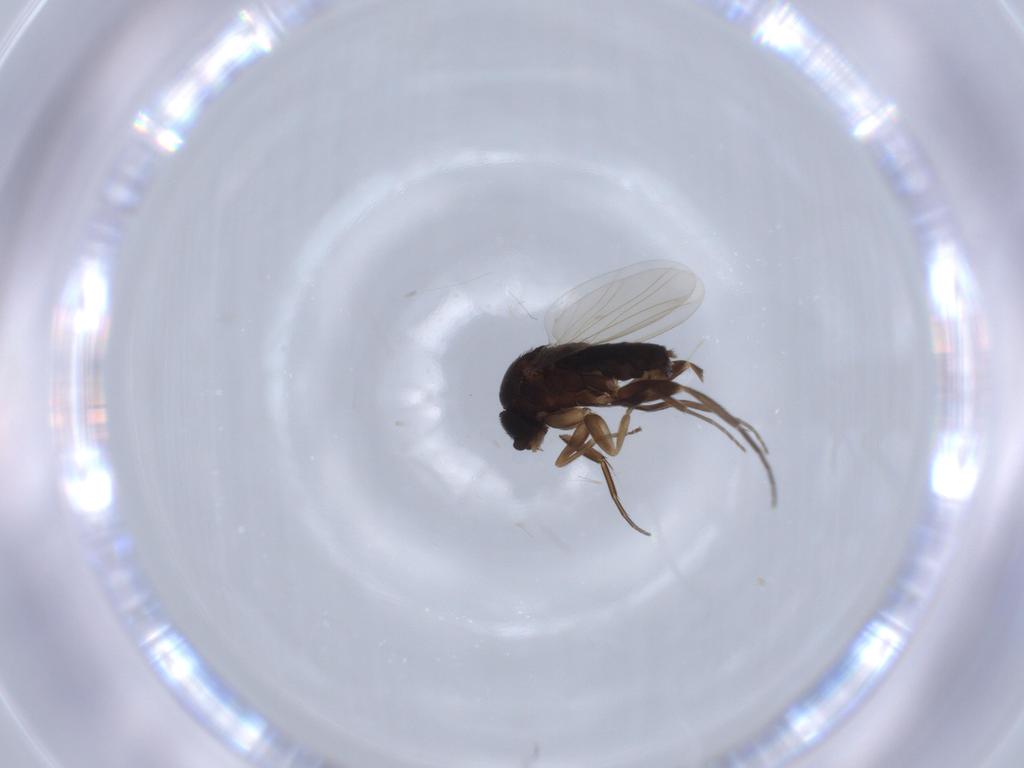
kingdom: Animalia
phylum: Arthropoda
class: Insecta
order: Diptera
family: Phoridae
